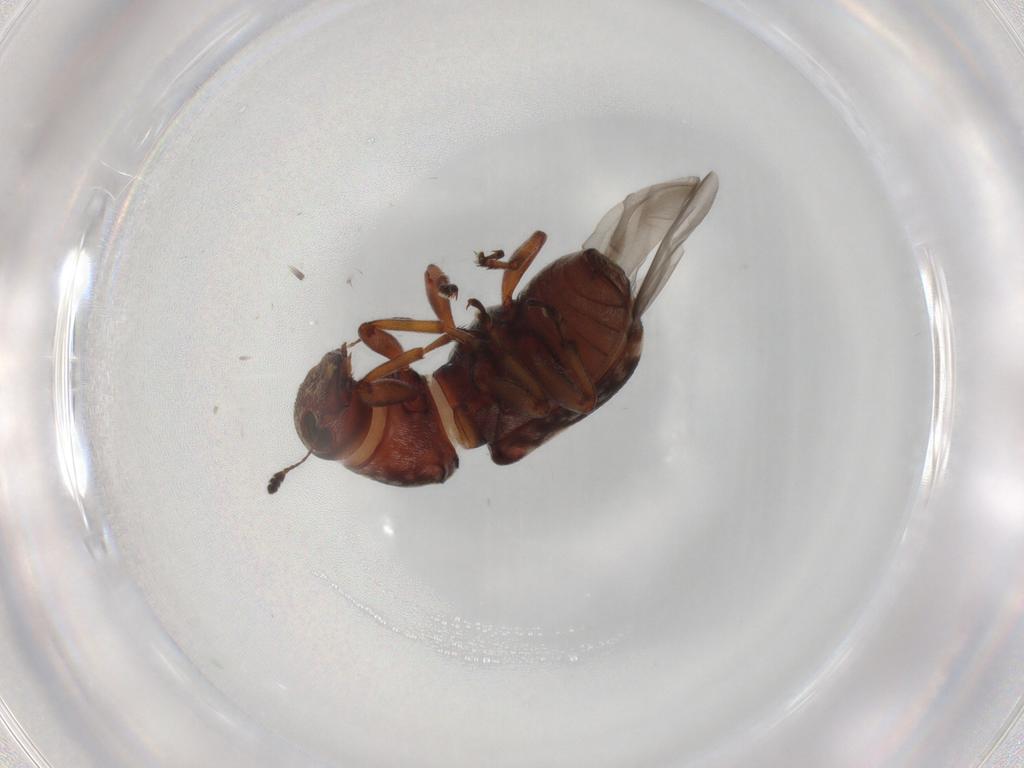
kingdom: Animalia
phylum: Arthropoda
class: Insecta
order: Coleoptera
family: Anthribidae
